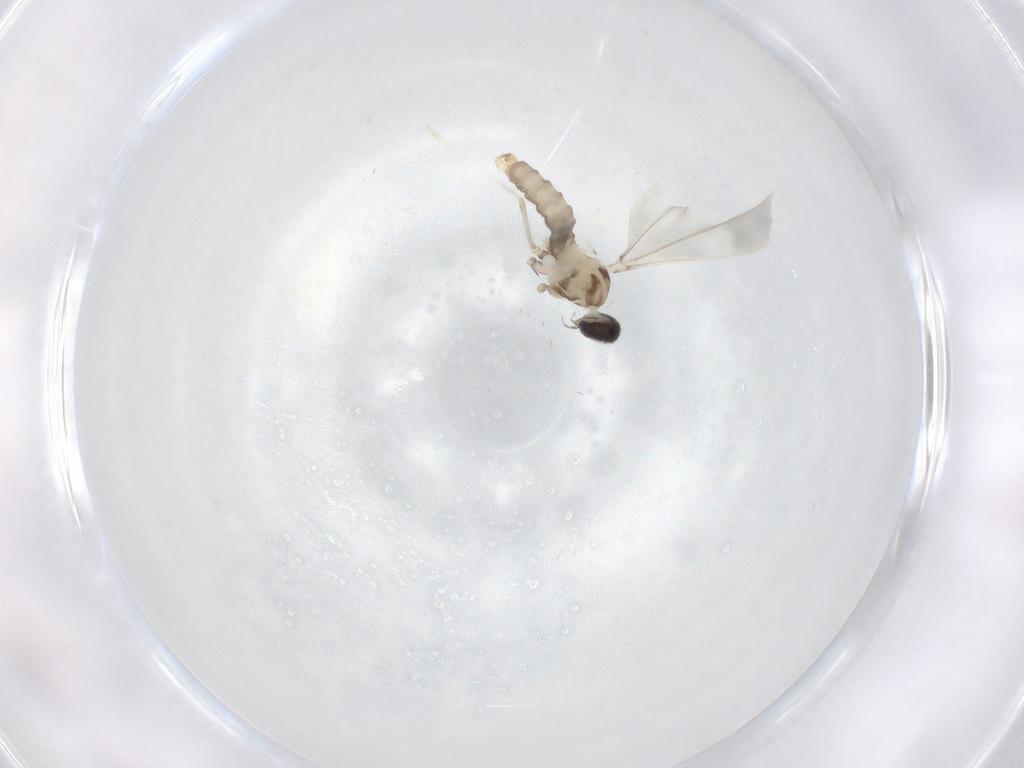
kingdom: Animalia
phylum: Arthropoda
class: Insecta
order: Diptera
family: Cecidomyiidae
